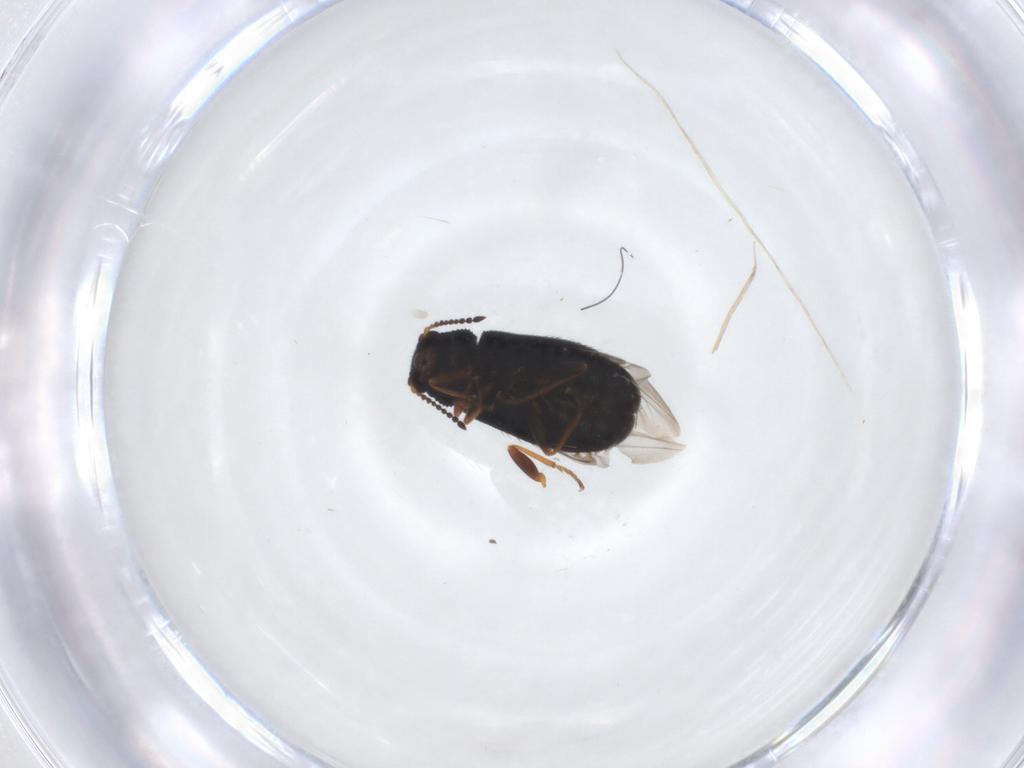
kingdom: Animalia
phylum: Arthropoda
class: Insecta
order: Coleoptera
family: Melyridae
